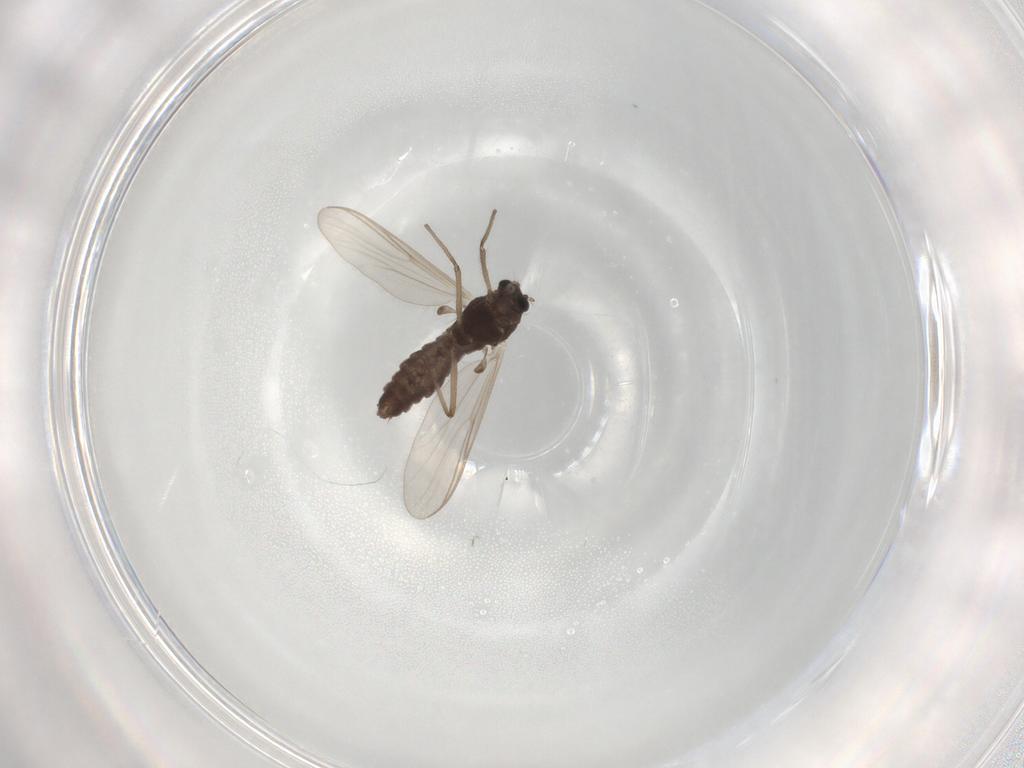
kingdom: Animalia
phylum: Arthropoda
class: Insecta
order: Diptera
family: Chironomidae
